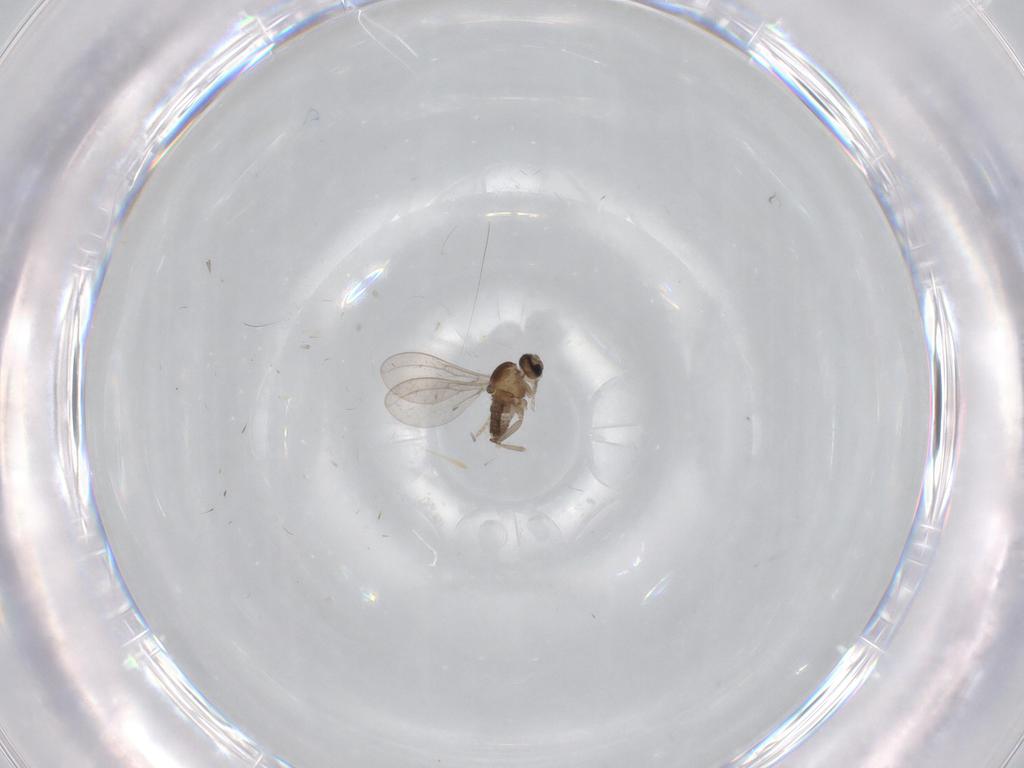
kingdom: Animalia
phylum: Arthropoda
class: Insecta
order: Diptera
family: Cecidomyiidae
